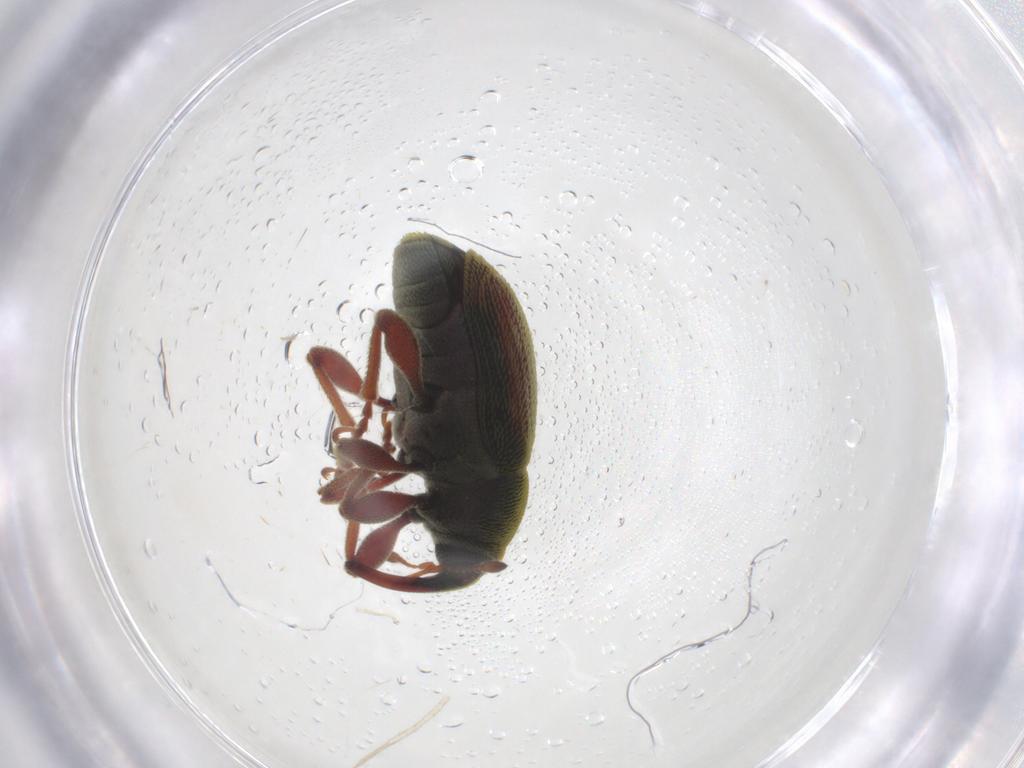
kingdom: Animalia
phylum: Arthropoda
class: Insecta
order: Coleoptera
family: Curculionidae
